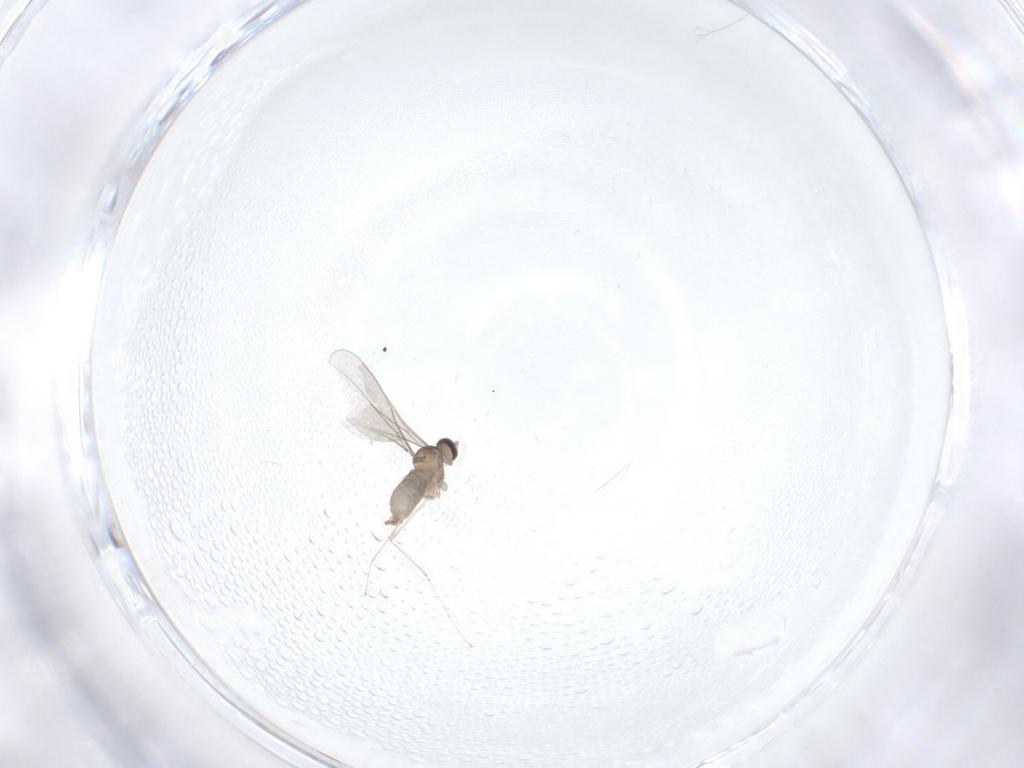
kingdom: Animalia
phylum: Arthropoda
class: Insecta
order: Diptera
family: Cecidomyiidae
